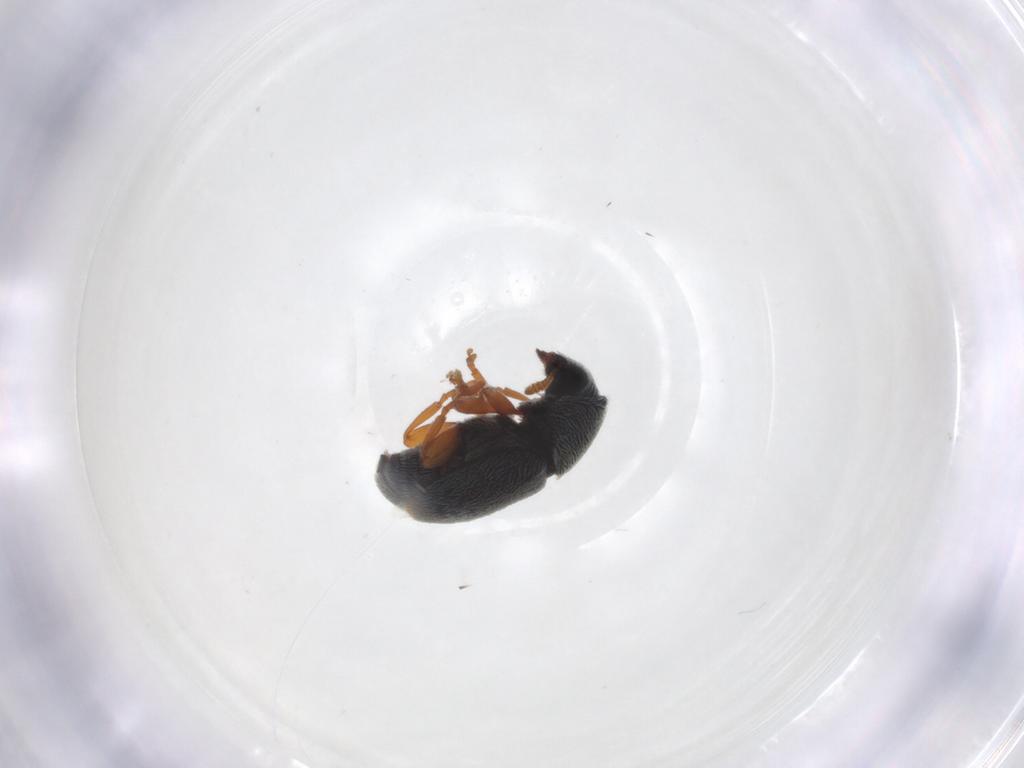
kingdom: Animalia
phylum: Arthropoda
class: Insecta
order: Coleoptera
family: Anthribidae
